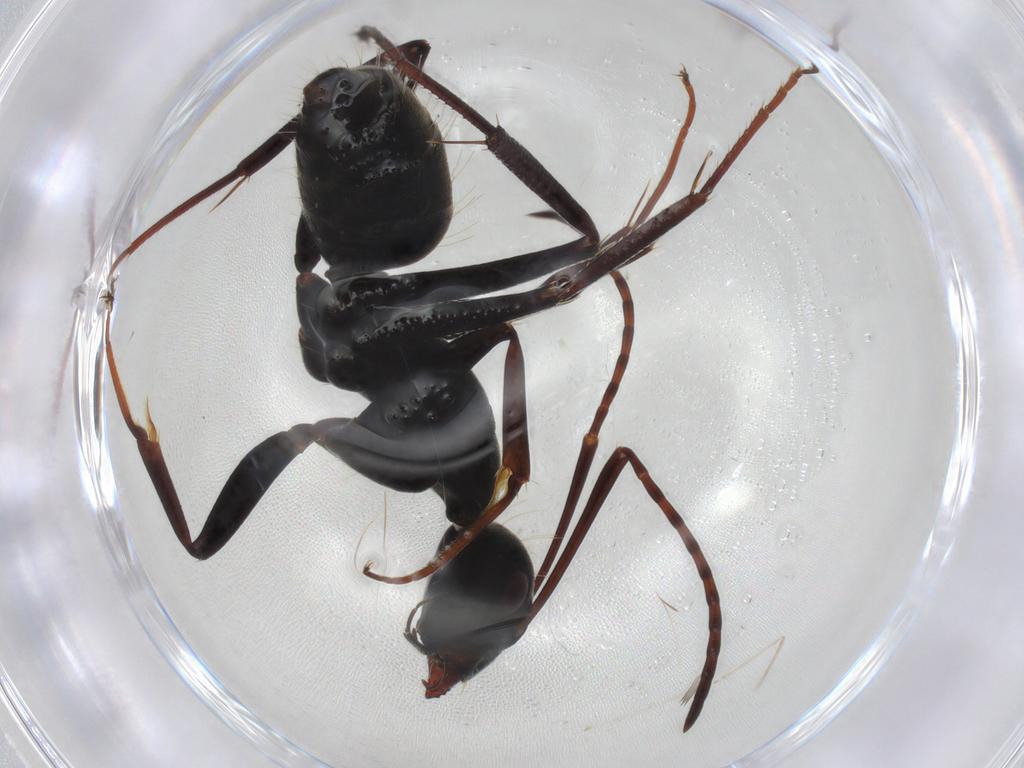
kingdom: Animalia
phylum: Arthropoda
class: Insecta
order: Hymenoptera
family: Formicidae
